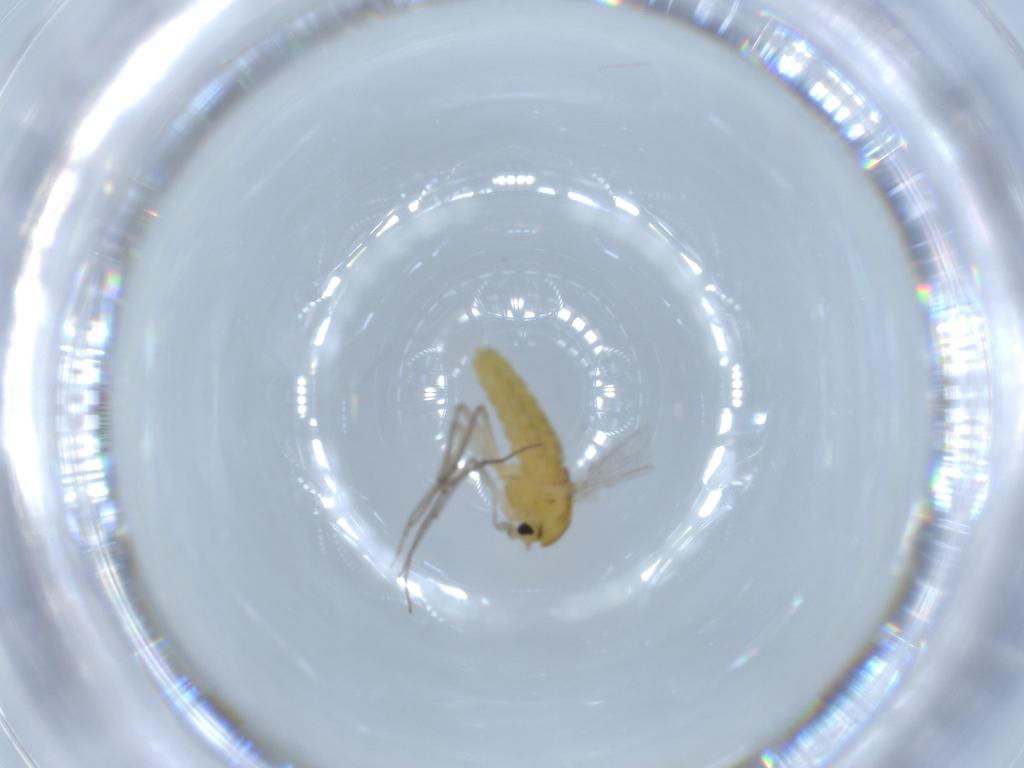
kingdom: Animalia
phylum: Arthropoda
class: Insecta
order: Diptera
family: Chironomidae
